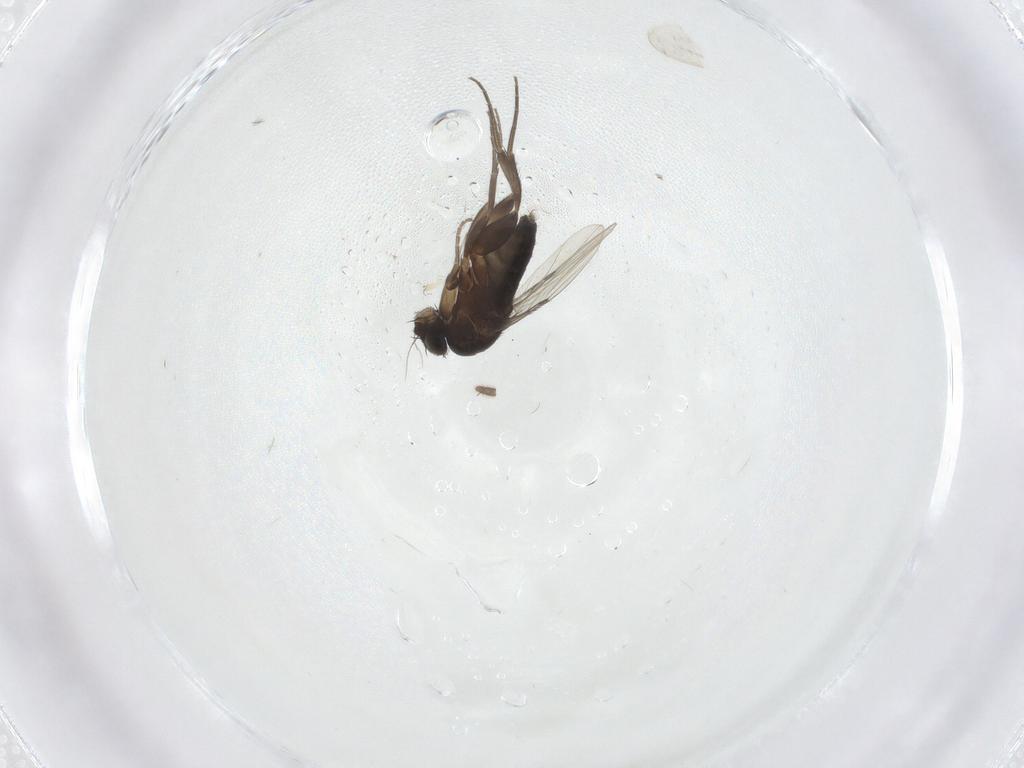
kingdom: Animalia
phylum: Arthropoda
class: Insecta
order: Diptera
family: Phoridae
